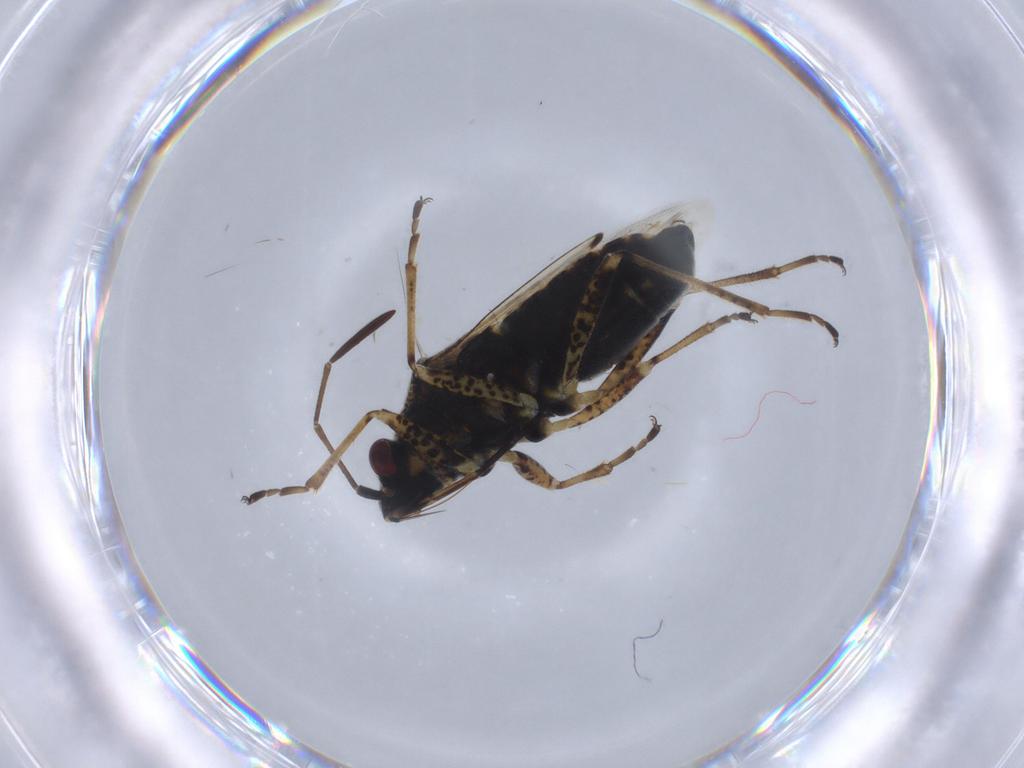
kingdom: Animalia
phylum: Arthropoda
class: Insecta
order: Hemiptera
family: Lygaeidae
